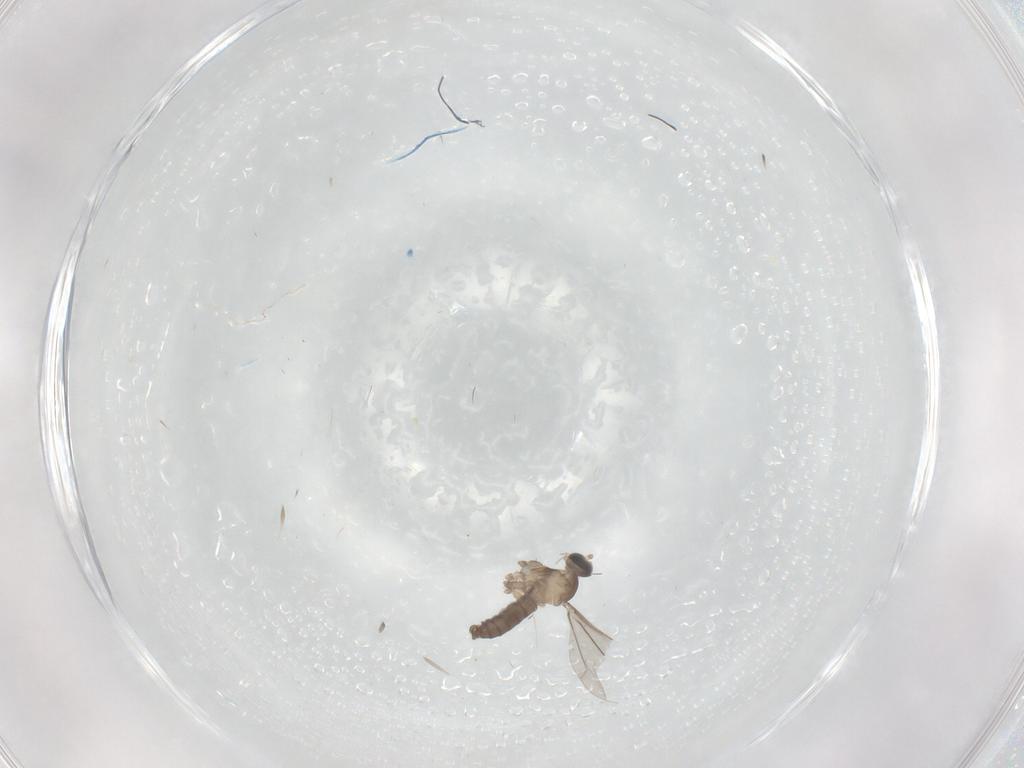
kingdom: Animalia
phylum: Arthropoda
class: Insecta
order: Diptera
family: Cecidomyiidae
